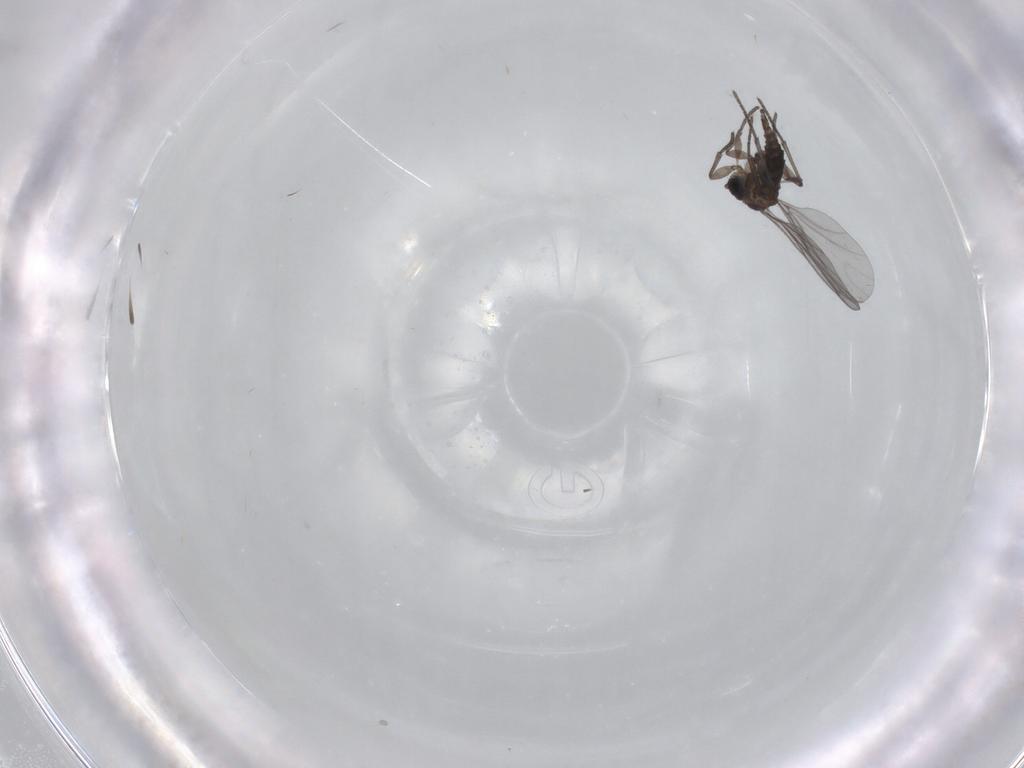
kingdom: Animalia
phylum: Arthropoda
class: Insecta
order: Diptera
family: Sciaridae
